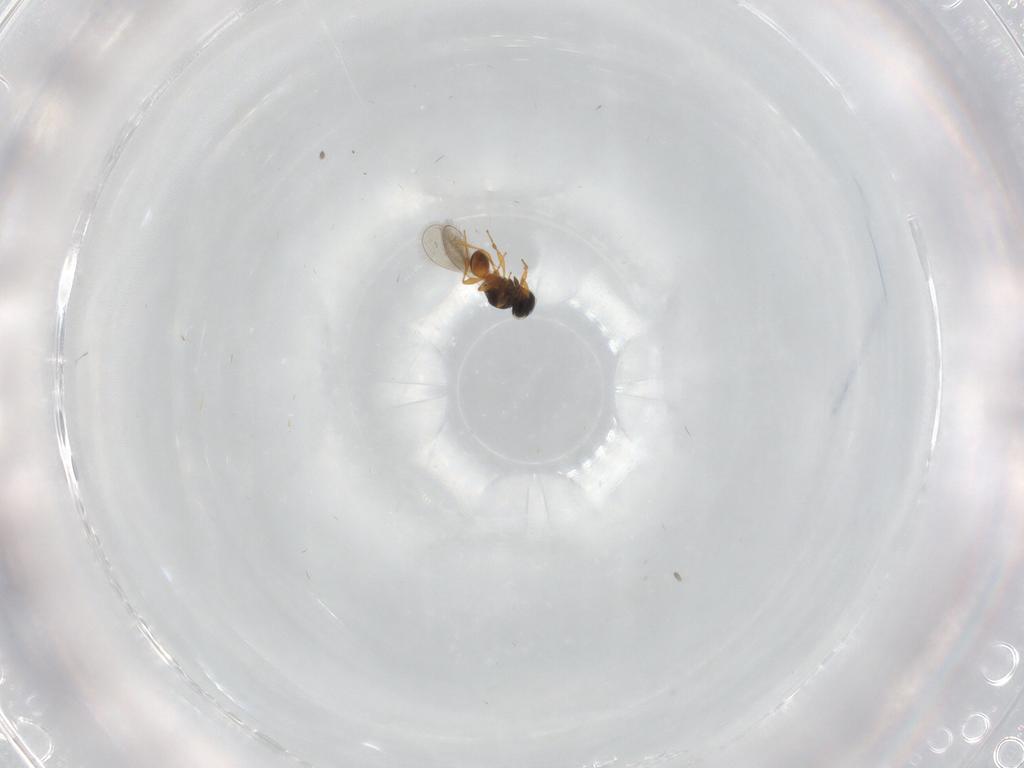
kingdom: Animalia
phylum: Arthropoda
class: Insecta
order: Hymenoptera
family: Platygastridae
